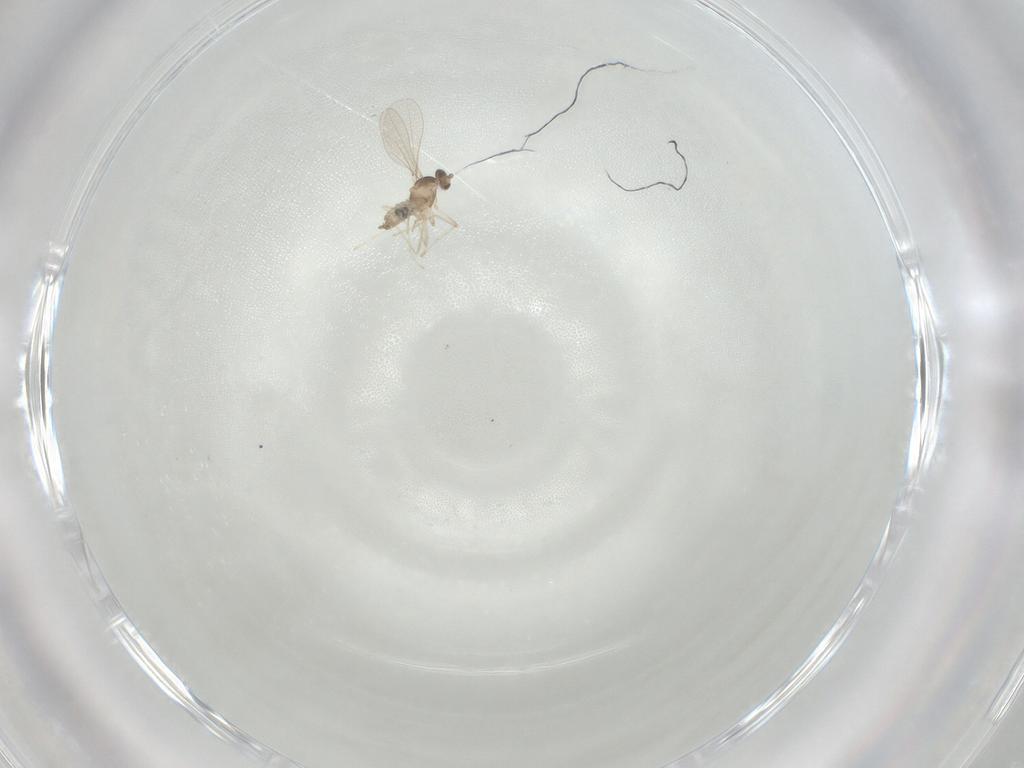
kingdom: Animalia
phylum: Arthropoda
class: Insecta
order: Diptera
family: Cecidomyiidae
